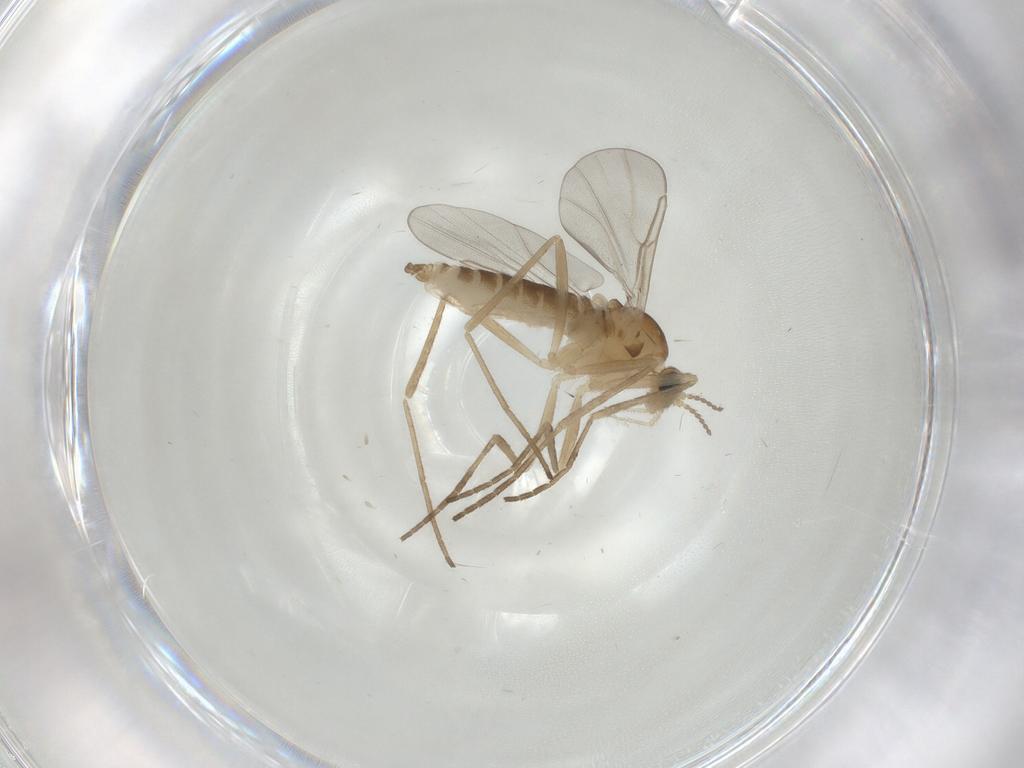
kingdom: Animalia
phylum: Arthropoda
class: Insecta
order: Diptera
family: Cecidomyiidae
